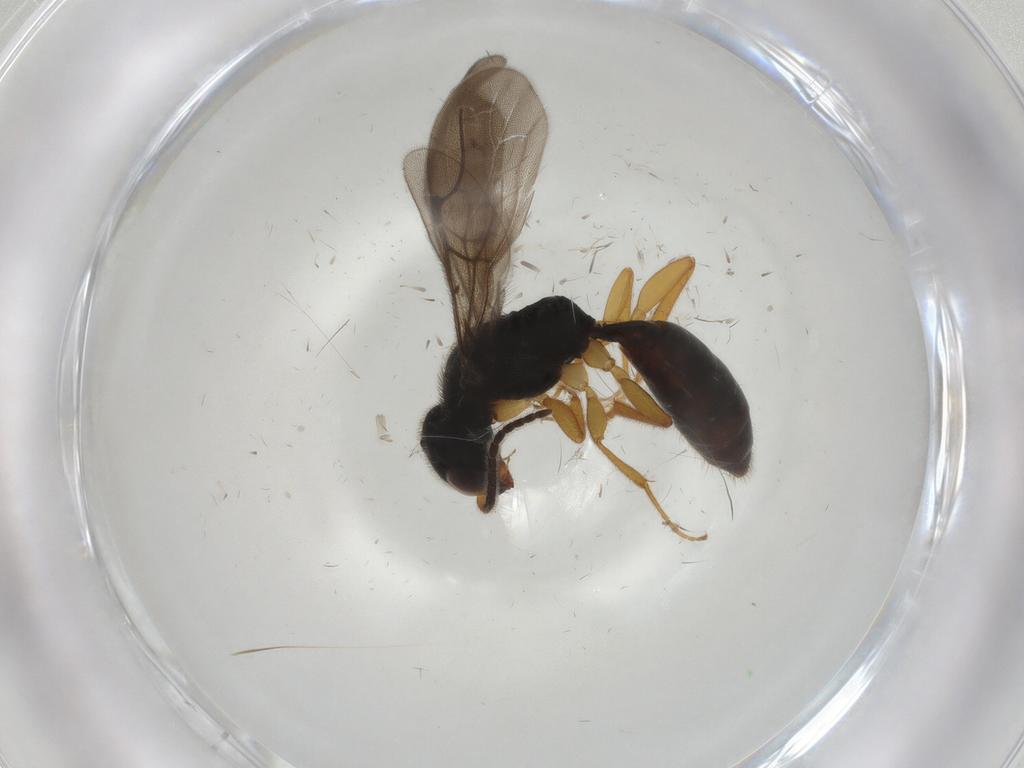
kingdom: Animalia
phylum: Arthropoda
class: Insecta
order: Hymenoptera
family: Bethylidae
